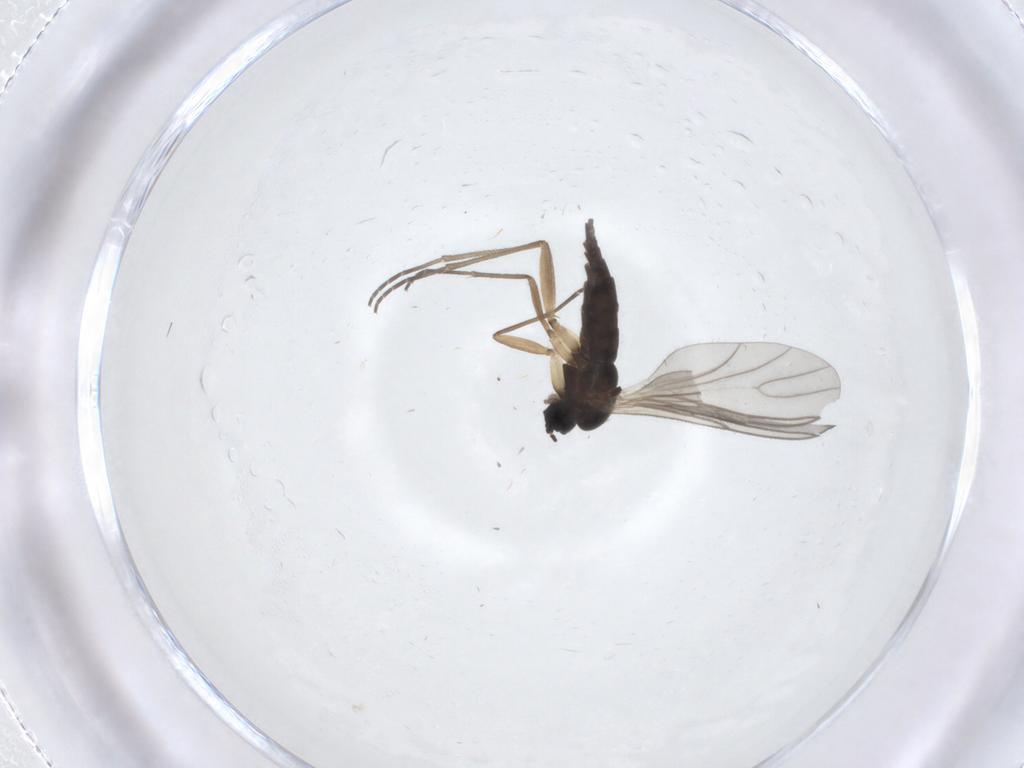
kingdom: Animalia
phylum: Arthropoda
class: Insecta
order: Diptera
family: Sciaridae
